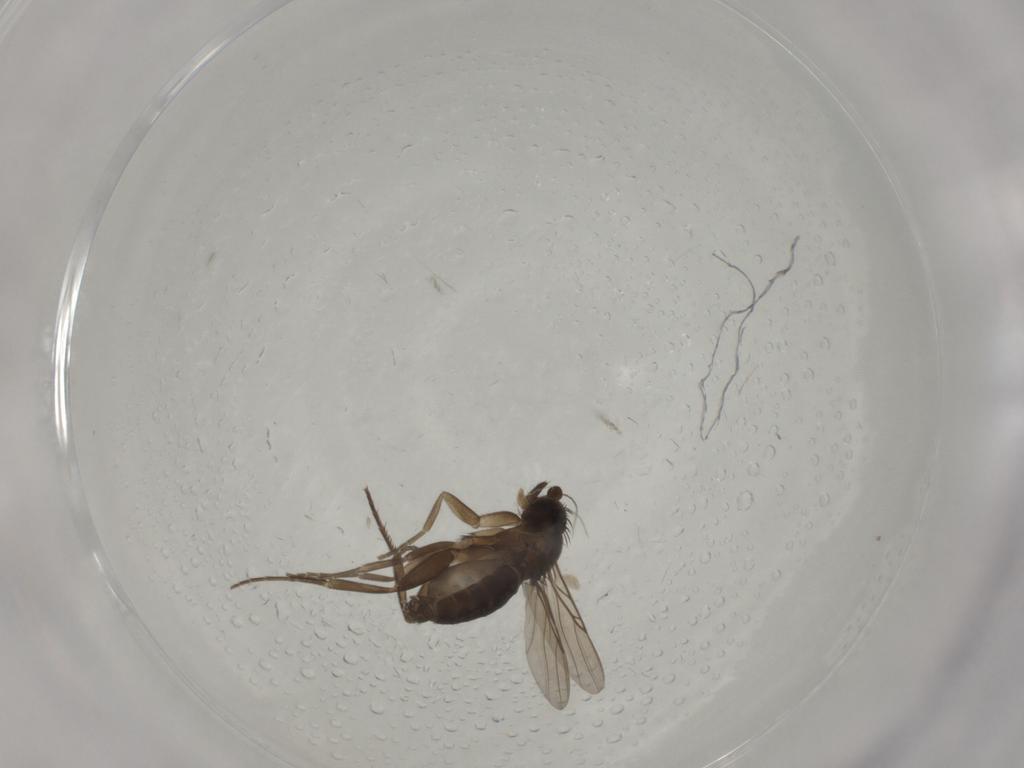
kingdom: Animalia
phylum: Arthropoda
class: Insecta
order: Diptera
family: Phoridae
